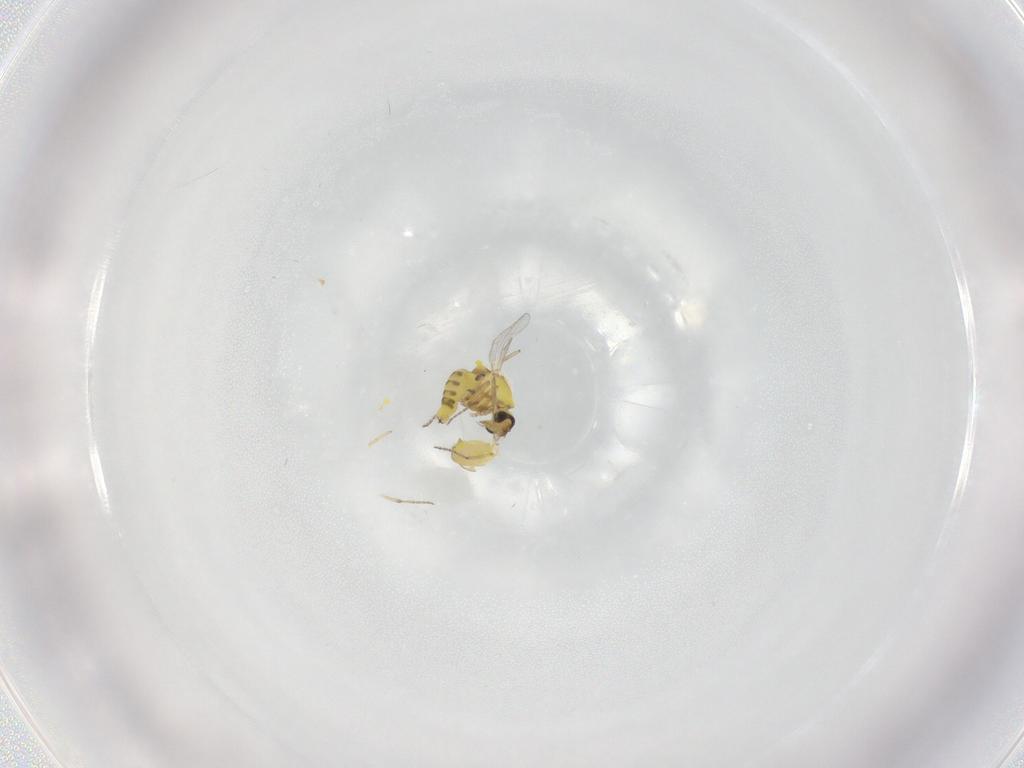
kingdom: Animalia
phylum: Arthropoda
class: Insecta
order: Diptera
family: Ceratopogonidae
